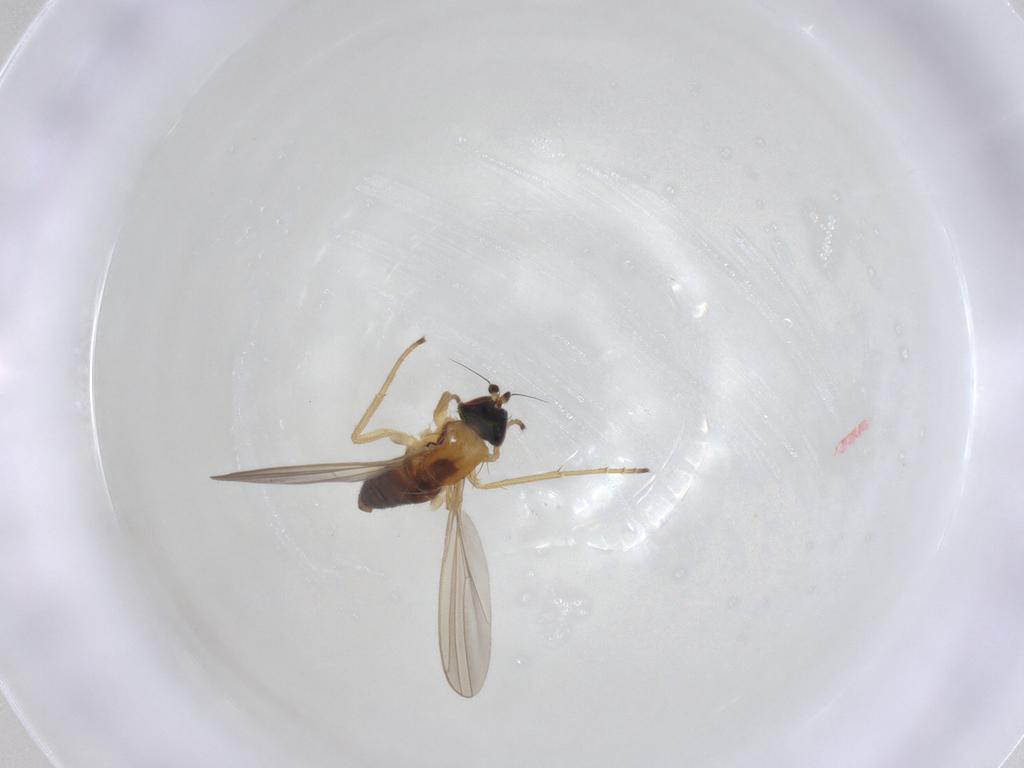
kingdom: Animalia
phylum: Arthropoda
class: Insecta
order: Diptera
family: Dolichopodidae
